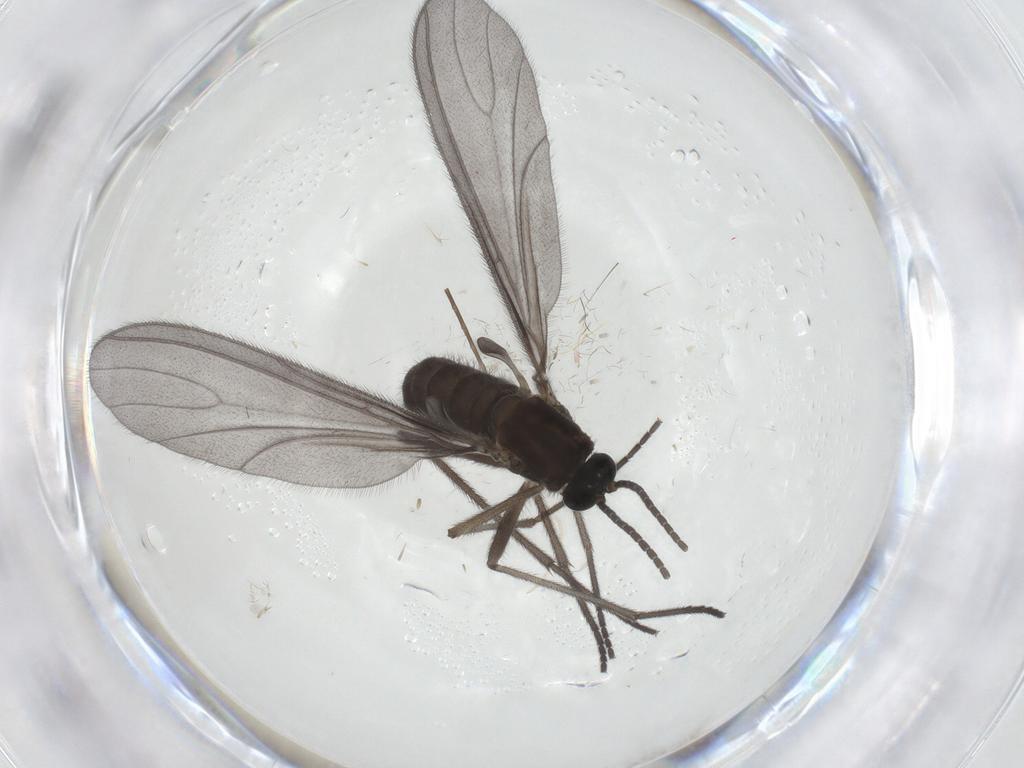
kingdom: Animalia
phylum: Arthropoda
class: Insecta
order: Diptera
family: Sciaridae
